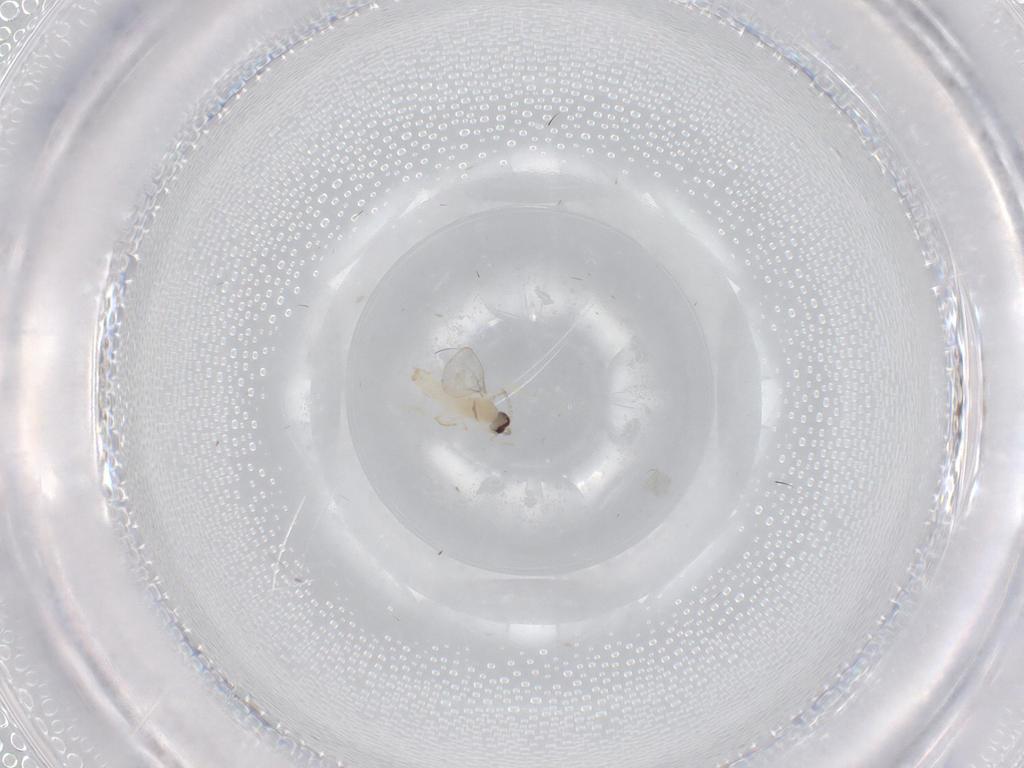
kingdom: Animalia
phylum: Arthropoda
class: Insecta
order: Diptera
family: Cecidomyiidae
